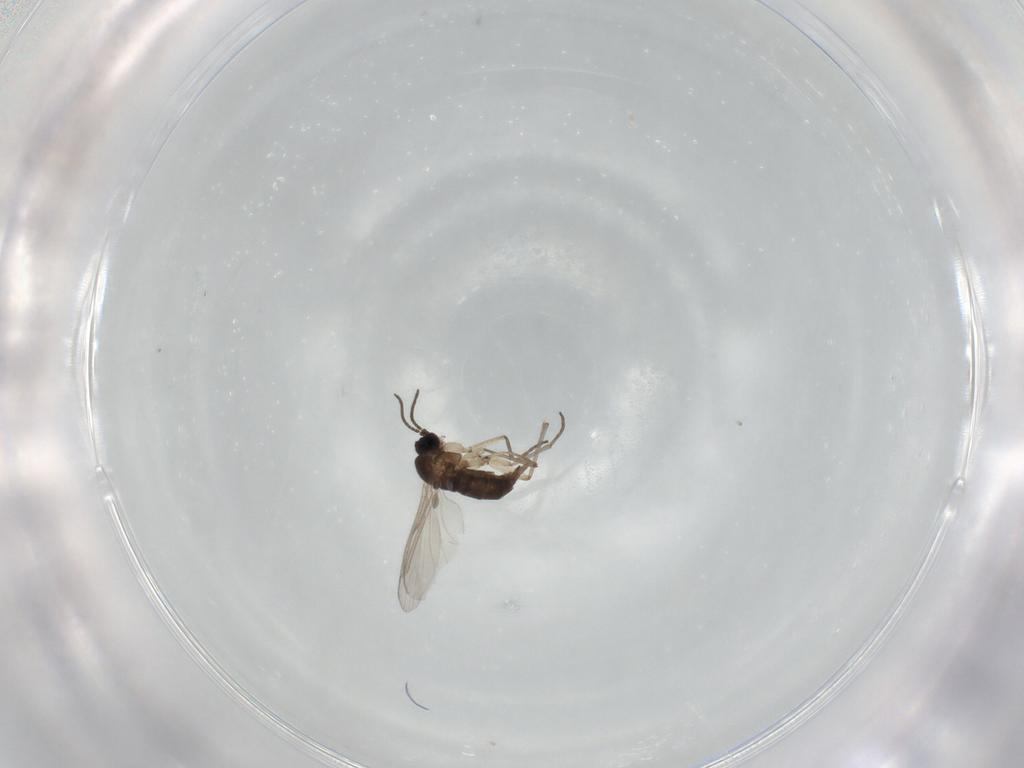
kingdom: Animalia
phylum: Arthropoda
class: Insecta
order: Diptera
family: Sciaridae
